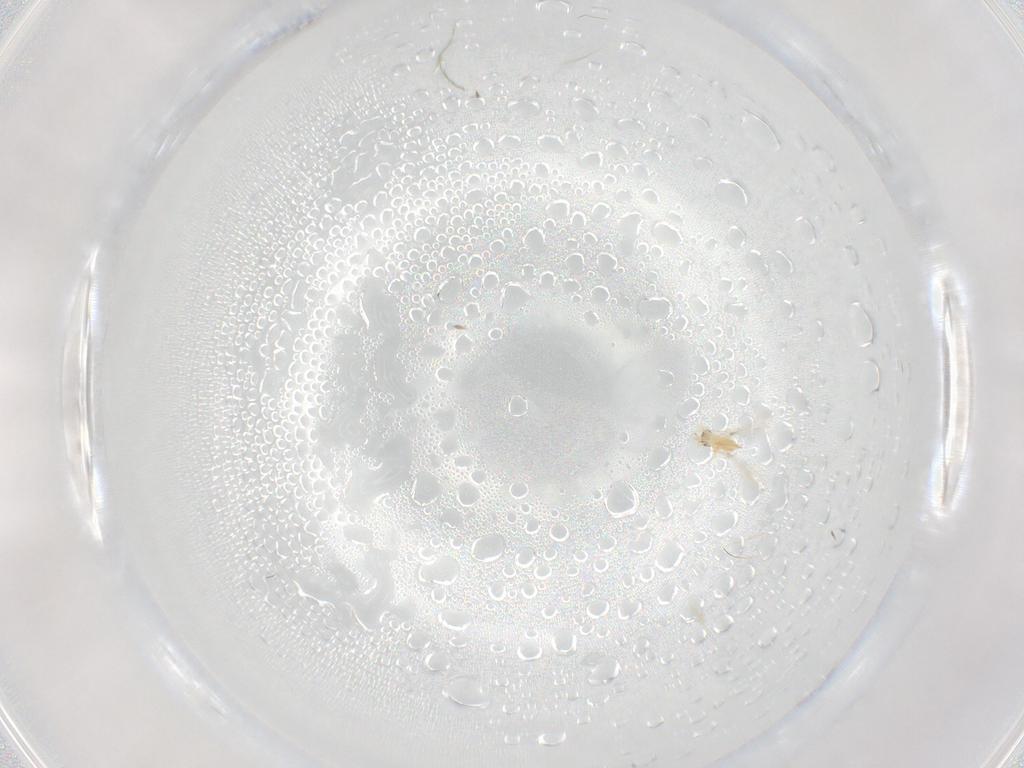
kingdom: Animalia
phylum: Arthropoda
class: Insecta
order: Hymenoptera
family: Mymaridae
